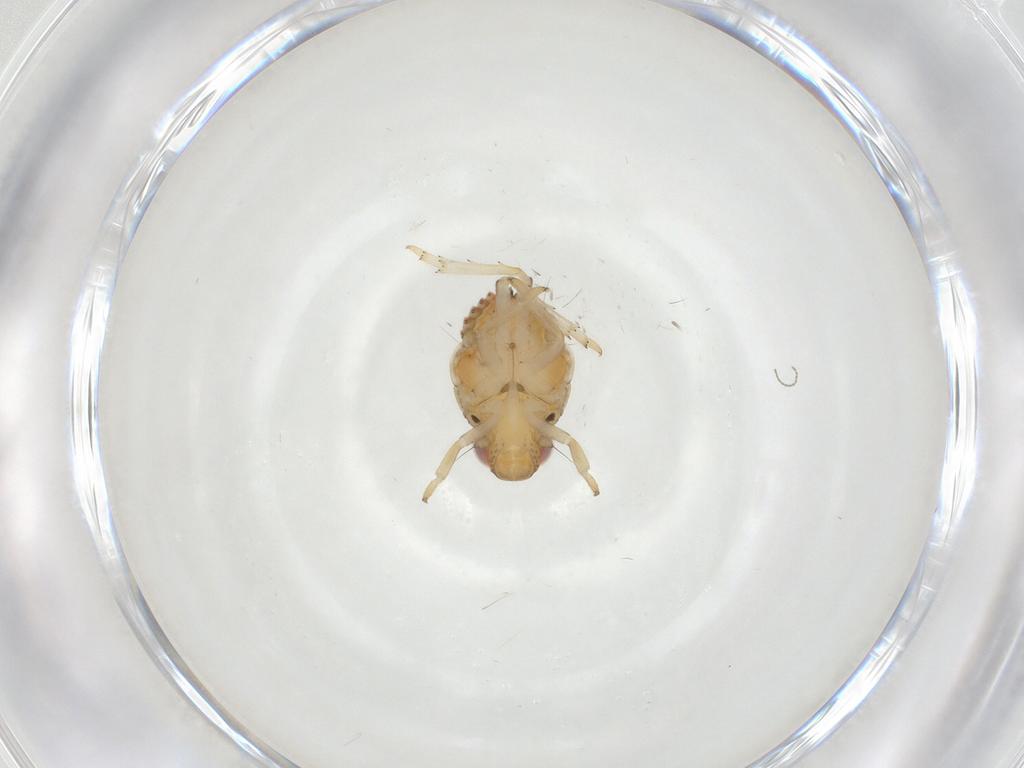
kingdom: Animalia
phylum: Arthropoda
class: Insecta
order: Hemiptera
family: Issidae
